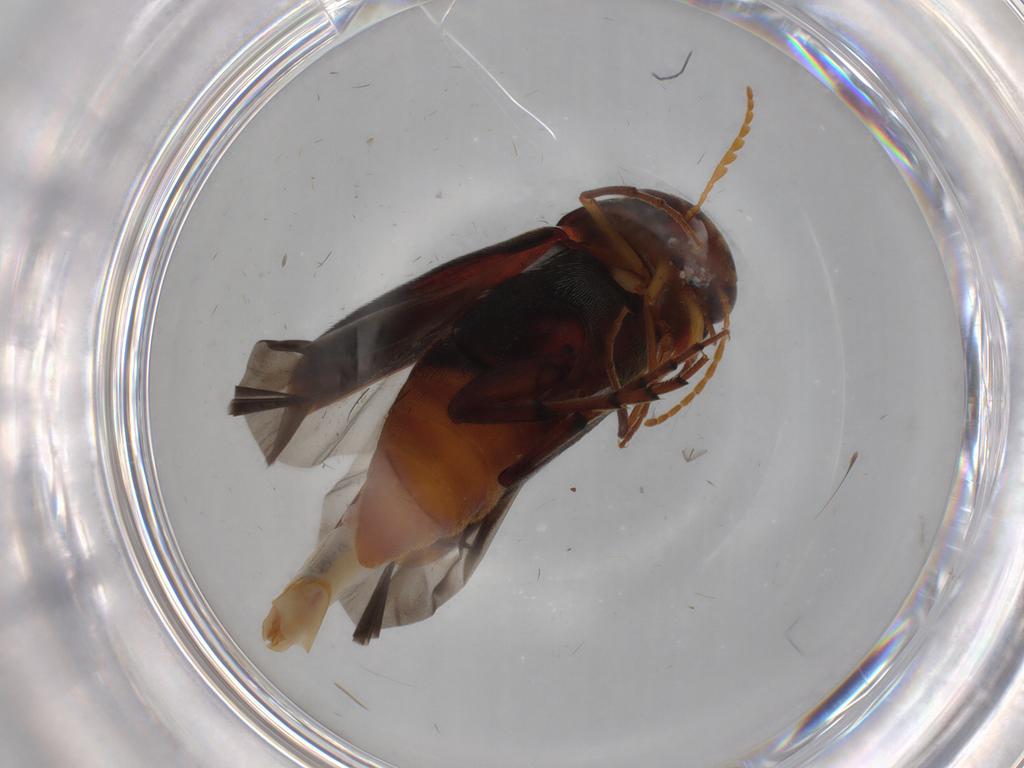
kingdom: Animalia
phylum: Arthropoda
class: Insecta
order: Coleoptera
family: Mordellidae
